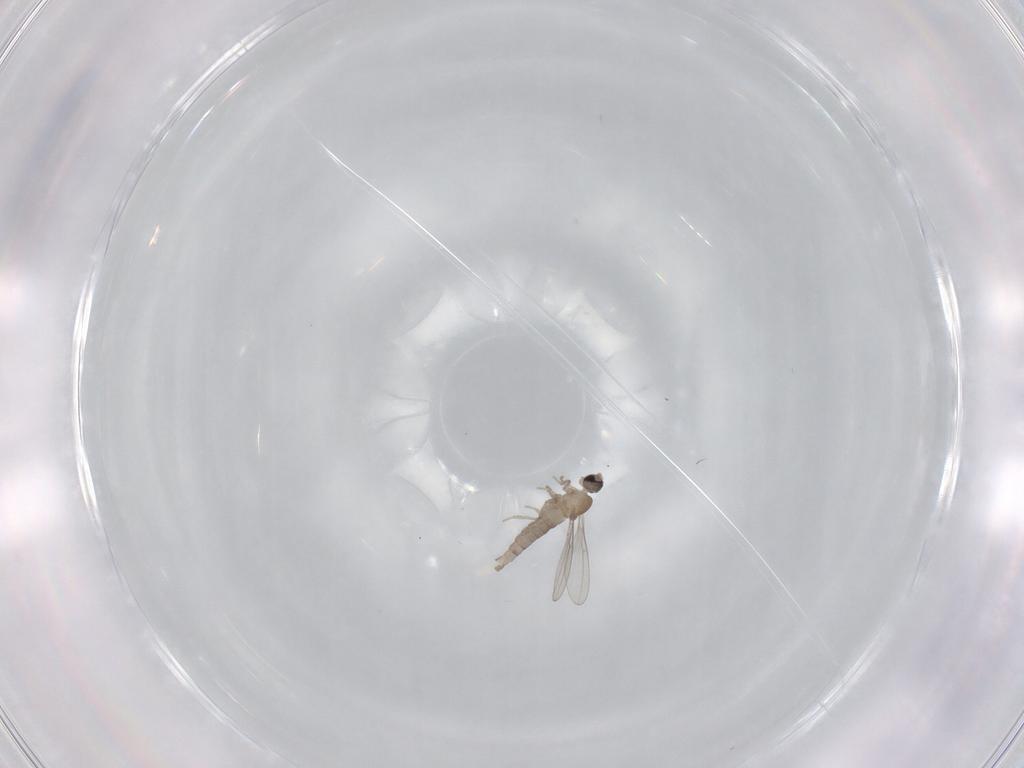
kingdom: Animalia
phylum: Arthropoda
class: Insecta
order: Diptera
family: Cecidomyiidae
